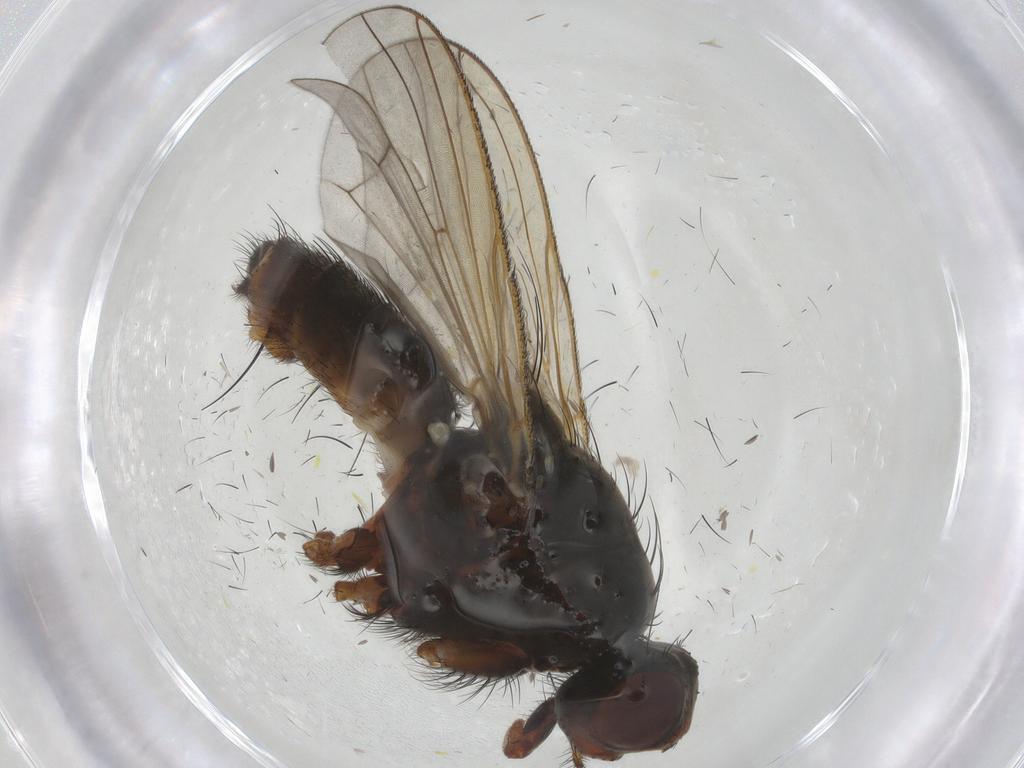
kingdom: Animalia
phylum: Arthropoda
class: Insecta
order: Diptera
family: Anthomyiidae
